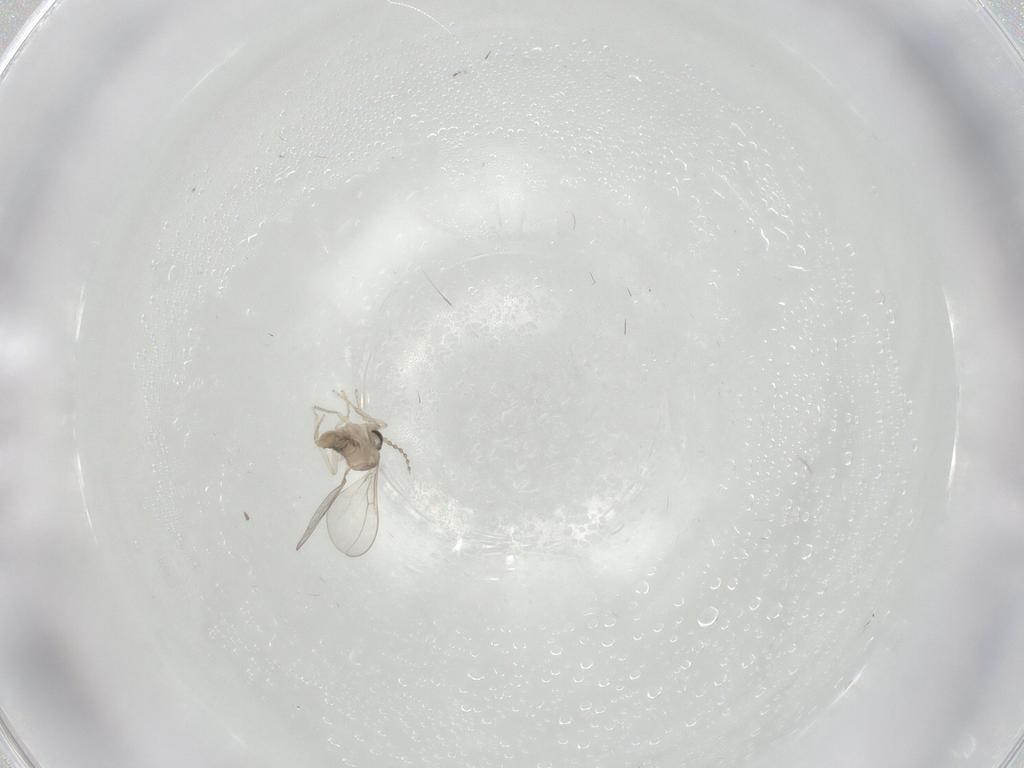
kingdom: Animalia
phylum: Arthropoda
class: Insecta
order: Diptera
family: Cecidomyiidae
